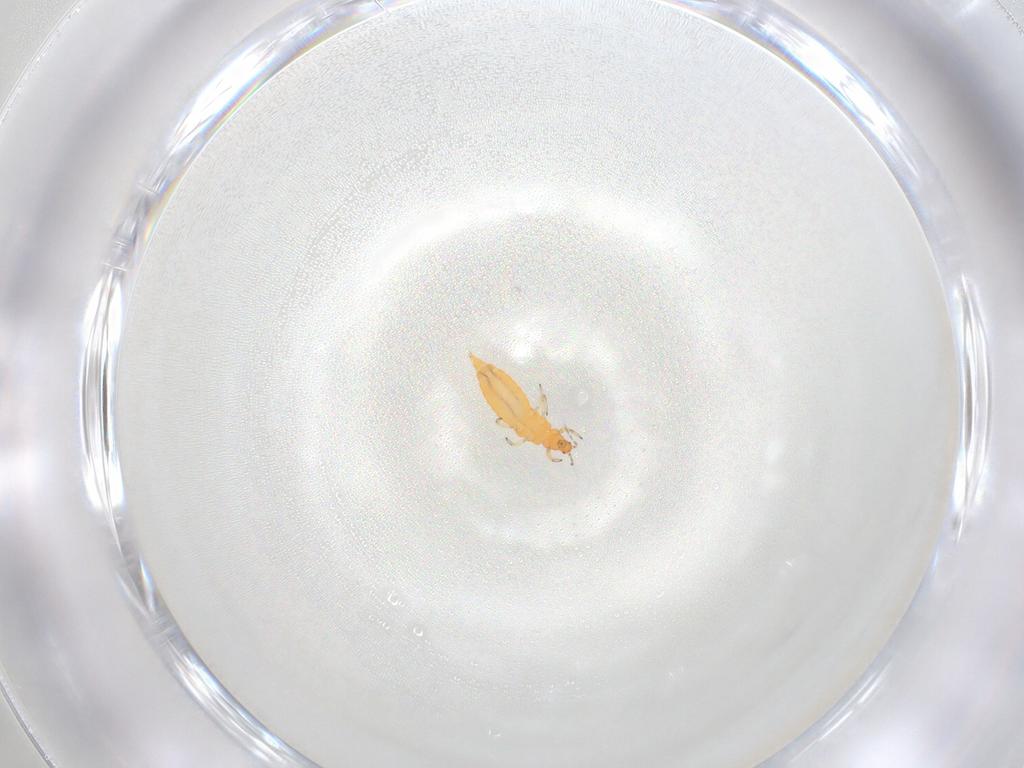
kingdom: Animalia
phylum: Arthropoda
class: Insecta
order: Thysanoptera
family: Aeolothripidae
